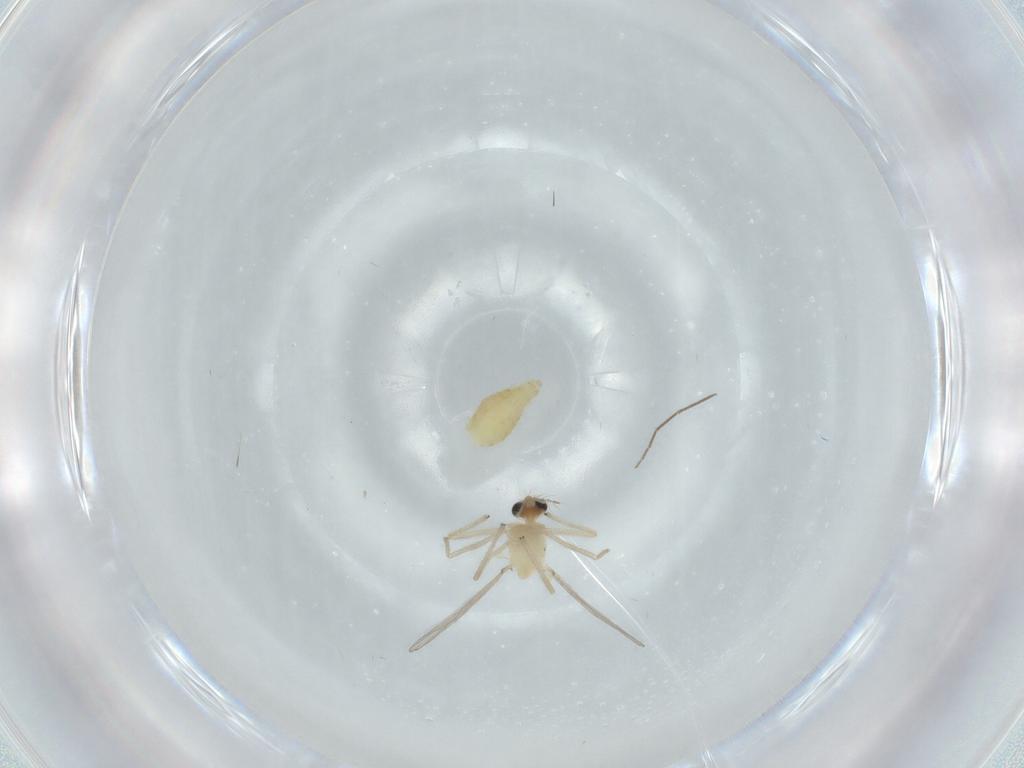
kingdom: Animalia
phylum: Arthropoda
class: Insecta
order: Diptera
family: Chironomidae
